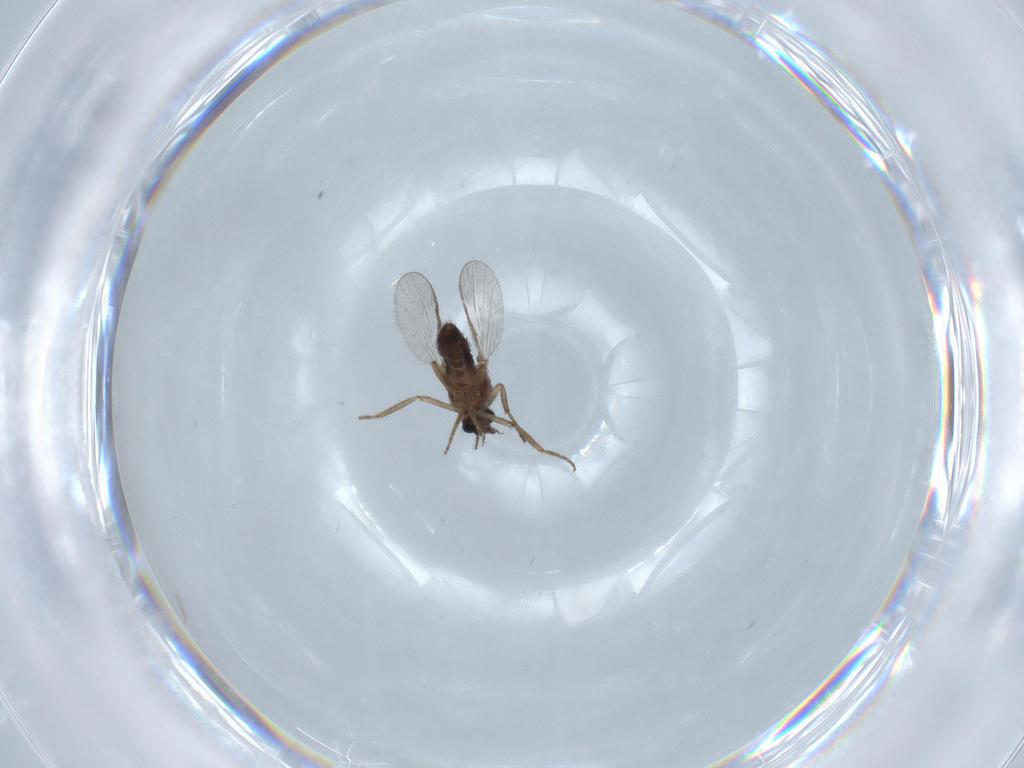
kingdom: Animalia
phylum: Arthropoda
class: Insecta
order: Diptera
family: Ceratopogonidae
